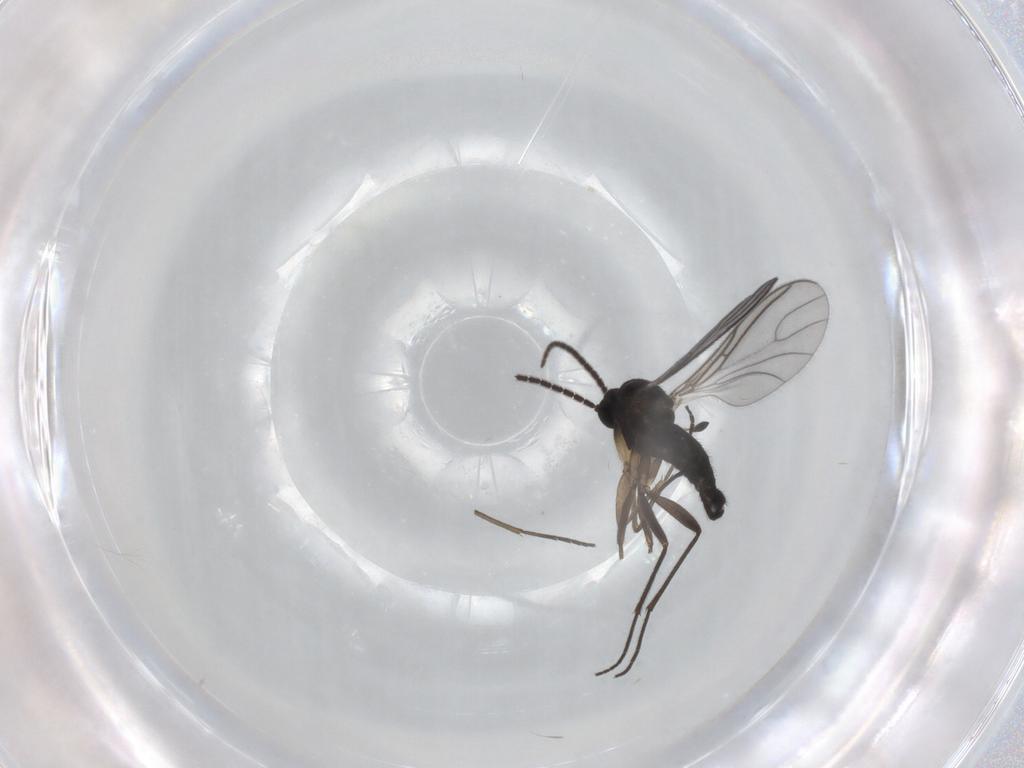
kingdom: Animalia
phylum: Arthropoda
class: Insecta
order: Diptera
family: Sciaridae
